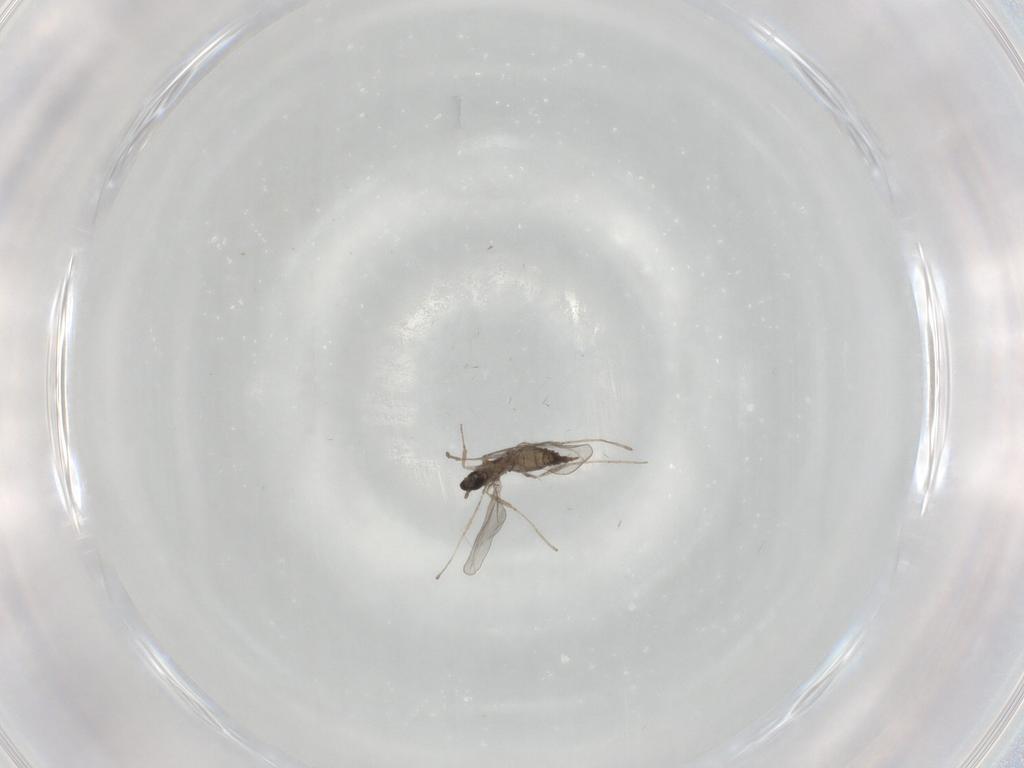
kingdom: Animalia
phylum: Arthropoda
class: Insecta
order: Diptera
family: Cecidomyiidae
